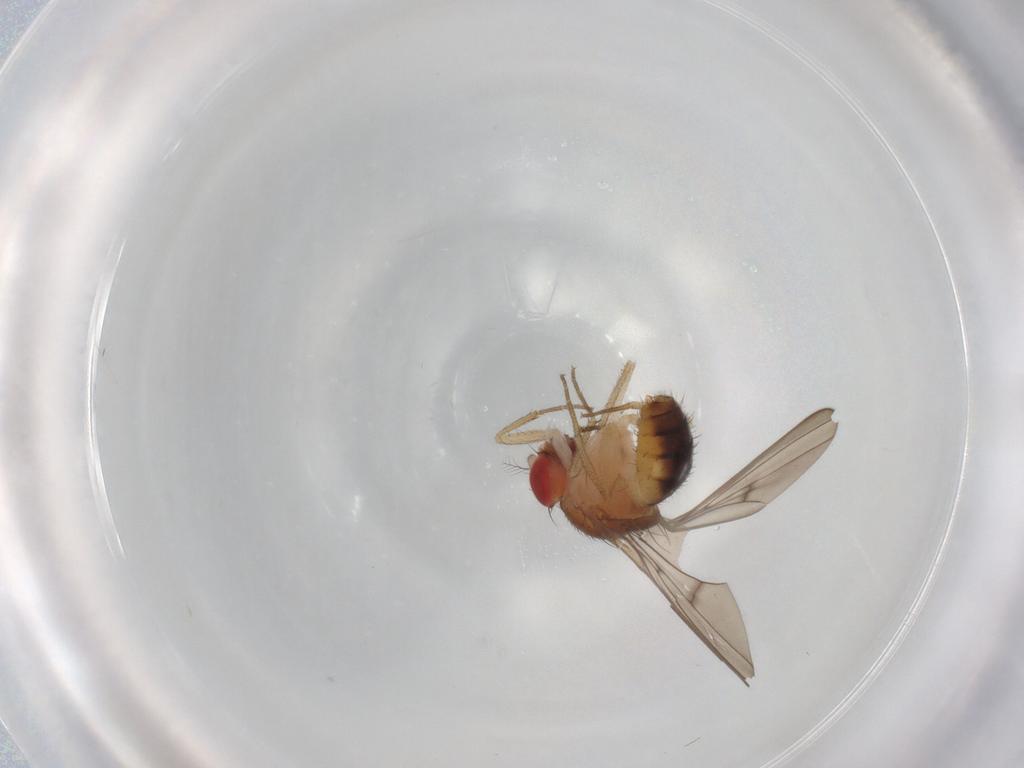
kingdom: Animalia
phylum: Arthropoda
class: Insecta
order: Diptera
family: Drosophilidae
